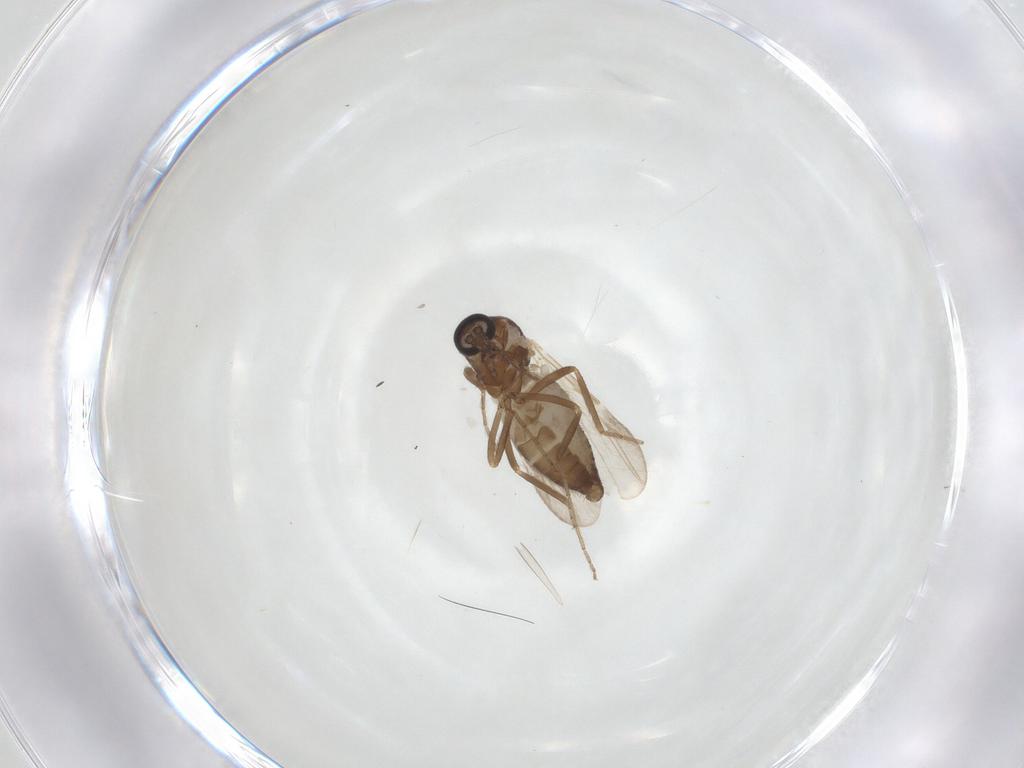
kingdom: Animalia
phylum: Arthropoda
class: Insecta
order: Diptera
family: Ceratopogonidae
